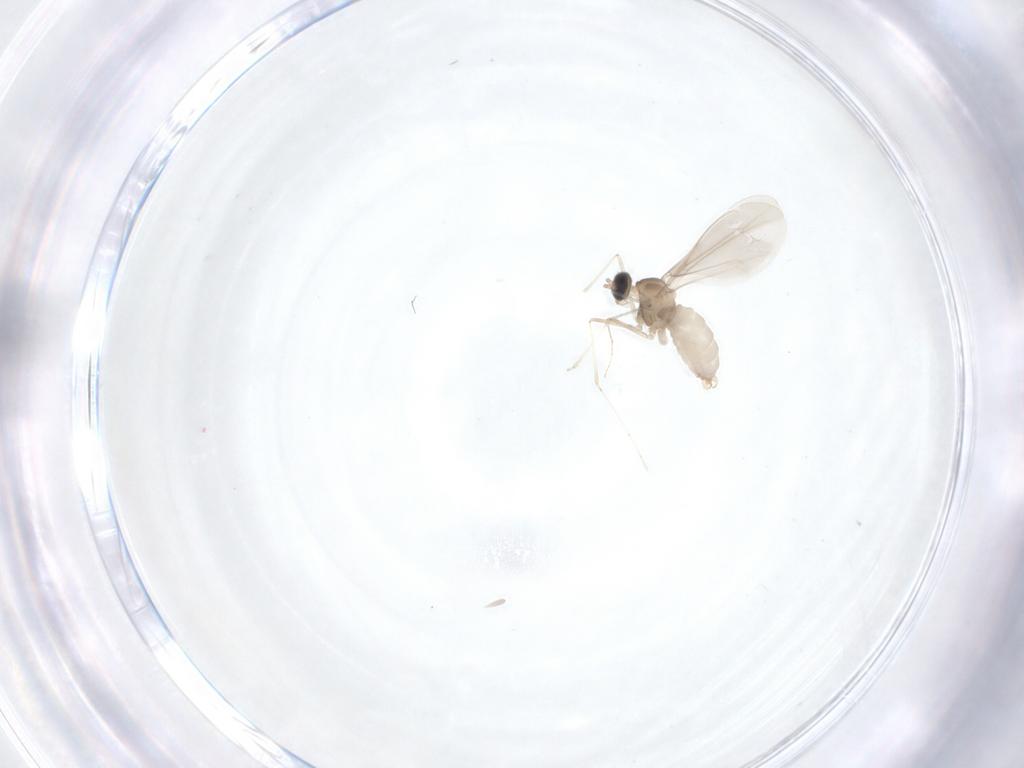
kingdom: Animalia
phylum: Arthropoda
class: Insecta
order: Diptera
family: Cecidomyiidae
